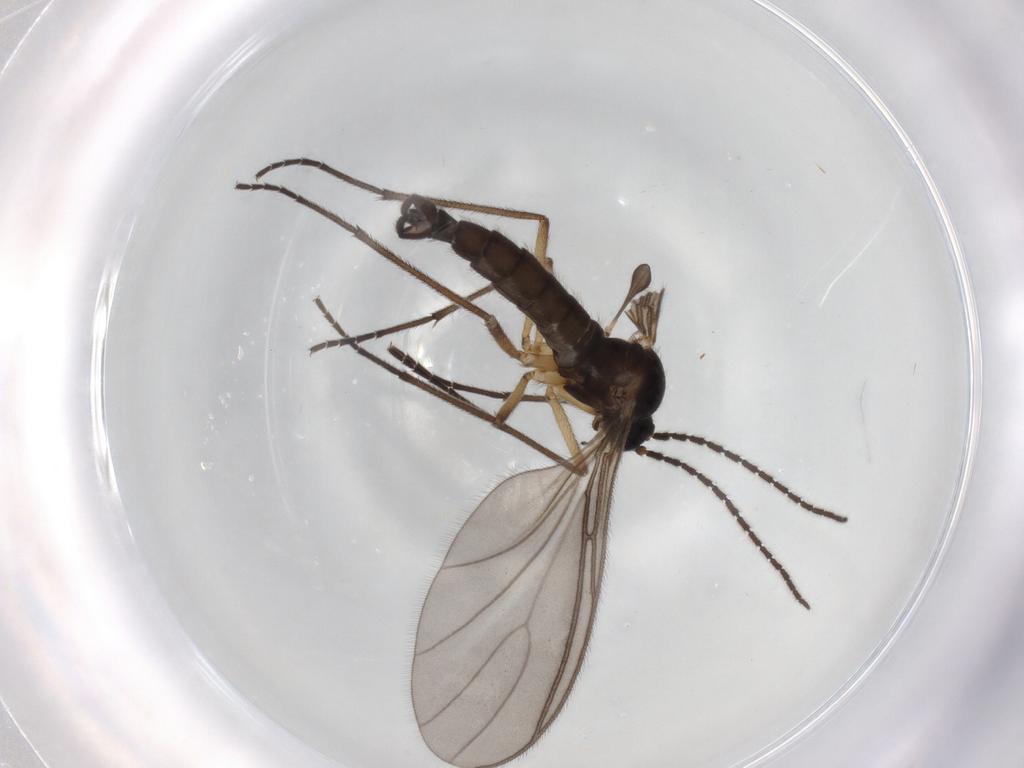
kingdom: Animalia
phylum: Arthropoda
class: Insecta
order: Diptera
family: Sciaridae
